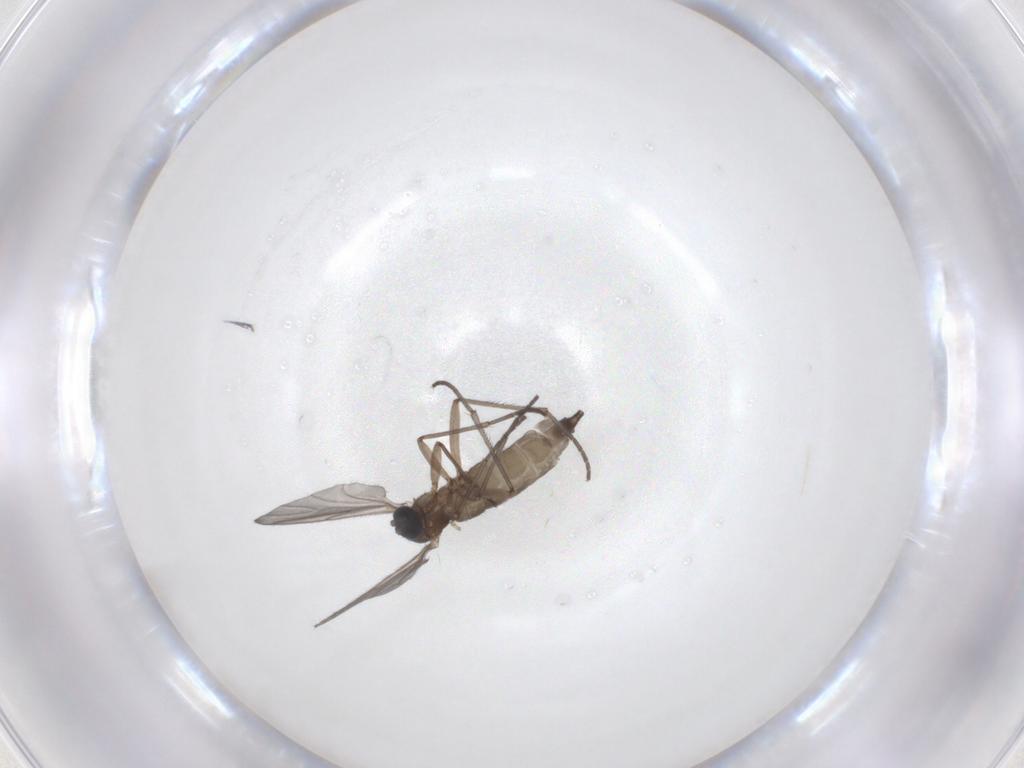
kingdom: Animalia
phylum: Arthropoda
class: Insecta
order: Diptera
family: Sciaridae
